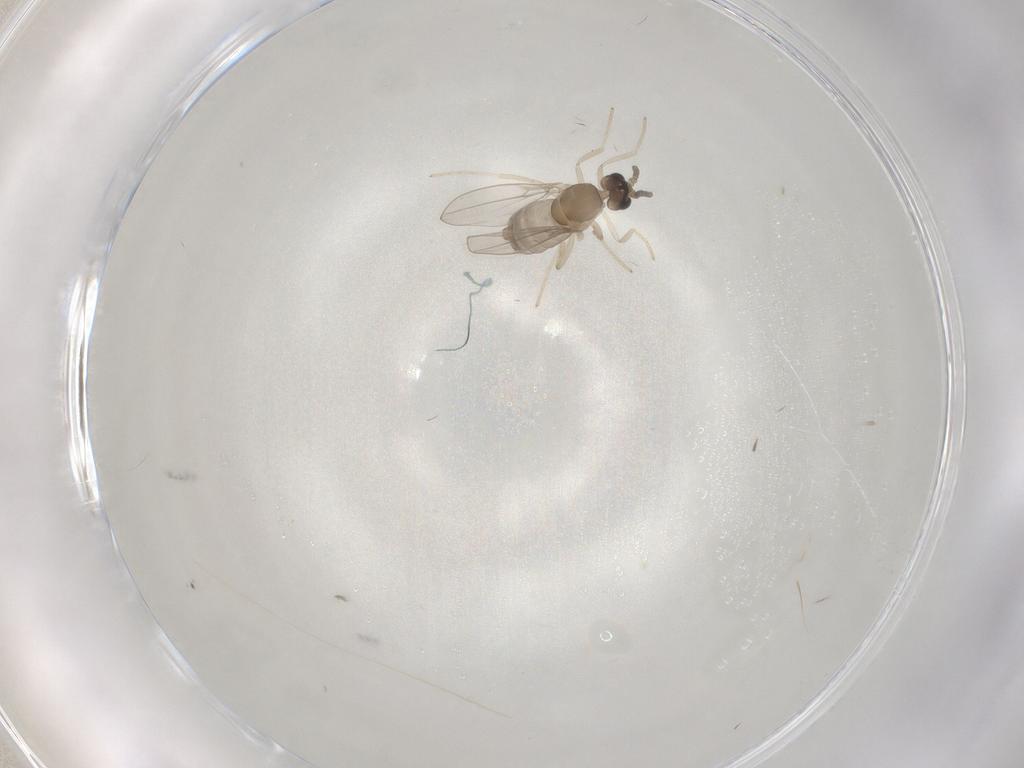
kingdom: Animalia
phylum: Arthropoda
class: Insecta
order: Diptera
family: Cecidomyiidae
